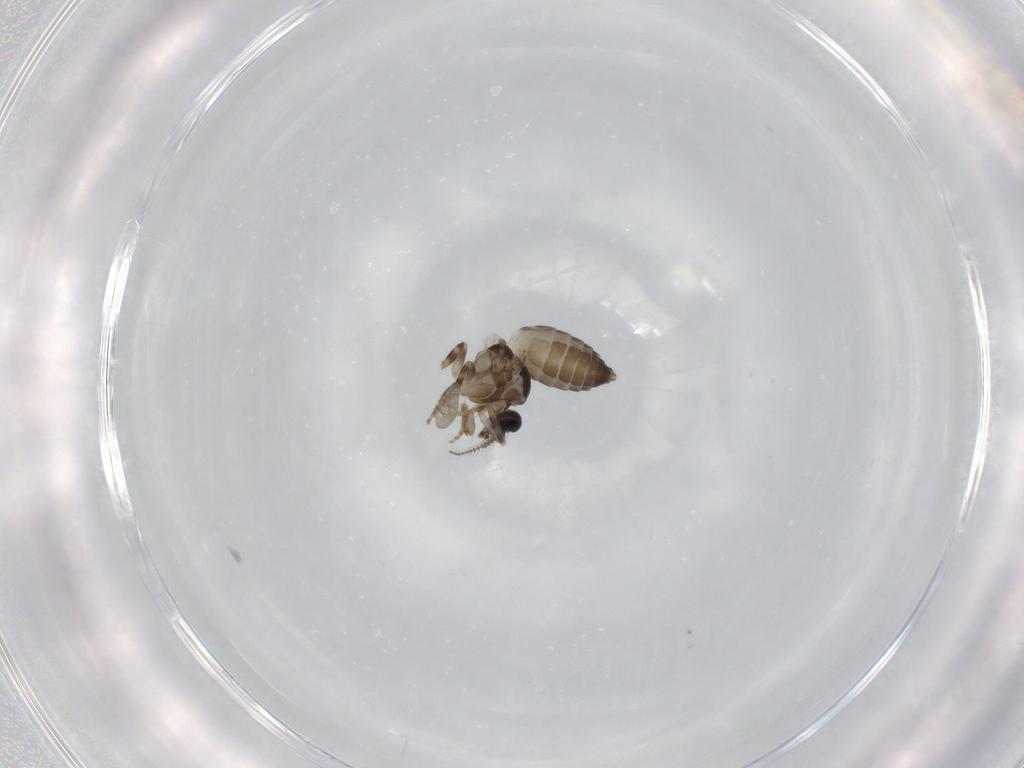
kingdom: Animalia
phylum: Arthropoda
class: Insecta
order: Diptera
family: Ceratopogonidae
